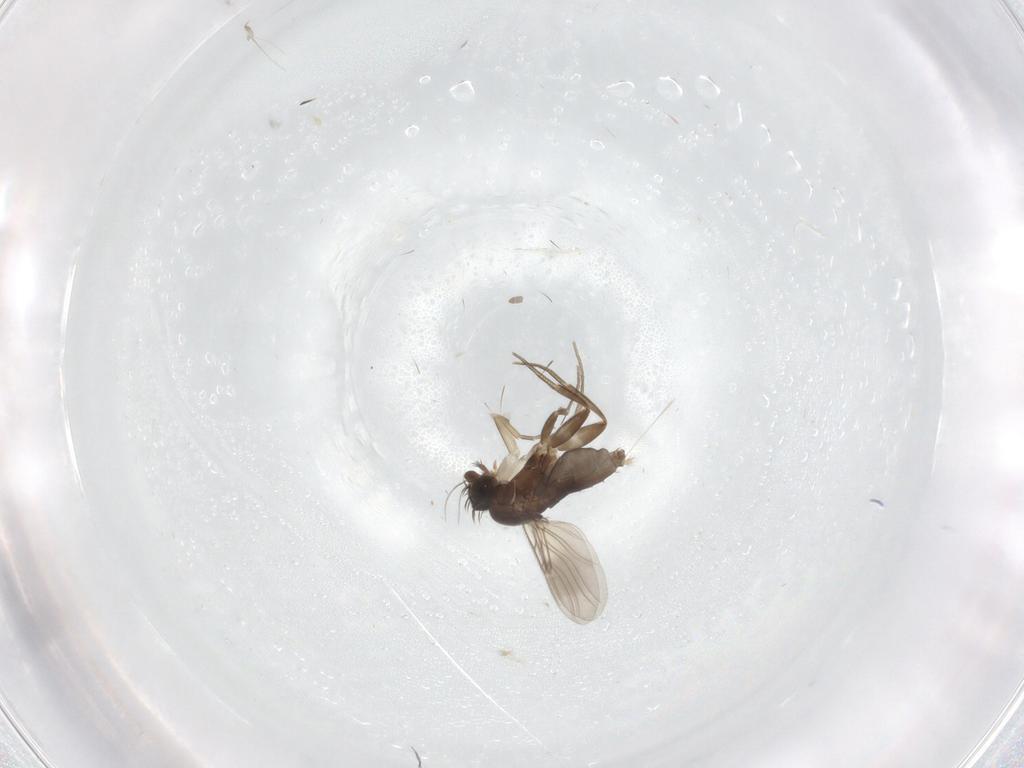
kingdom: Animalia
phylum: Arthropoda
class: Insecta
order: Diptera
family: Phoridae
